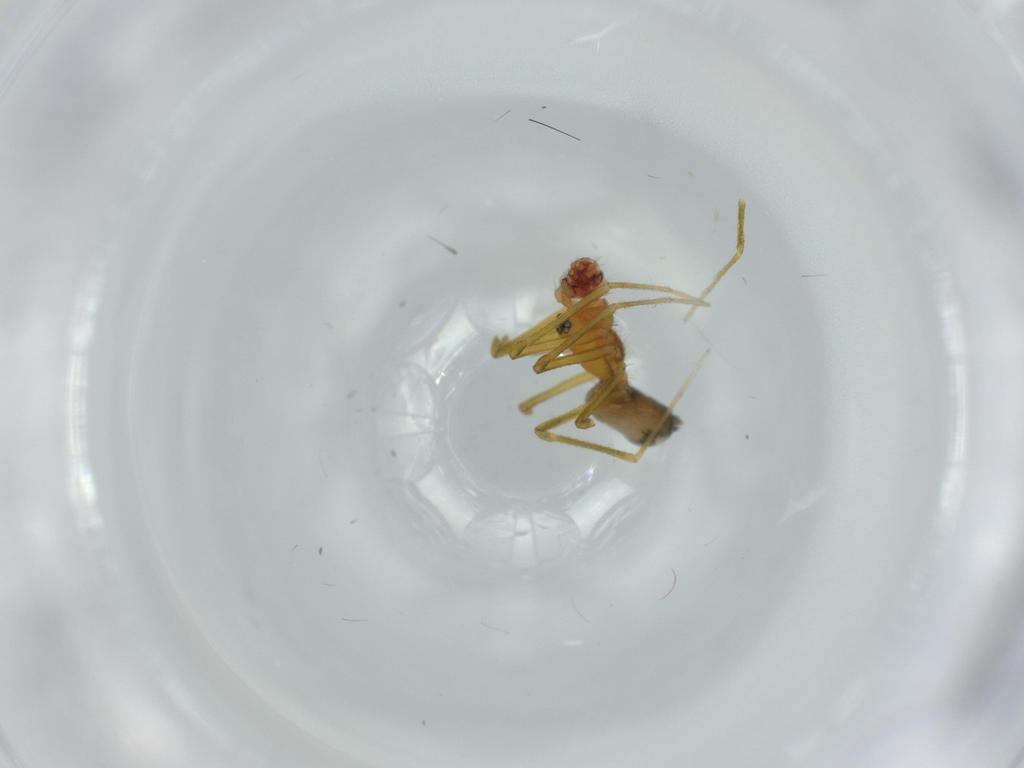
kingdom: Animalia
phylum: Arthropoda
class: Arachnida
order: Araneae
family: Linyphiidae
